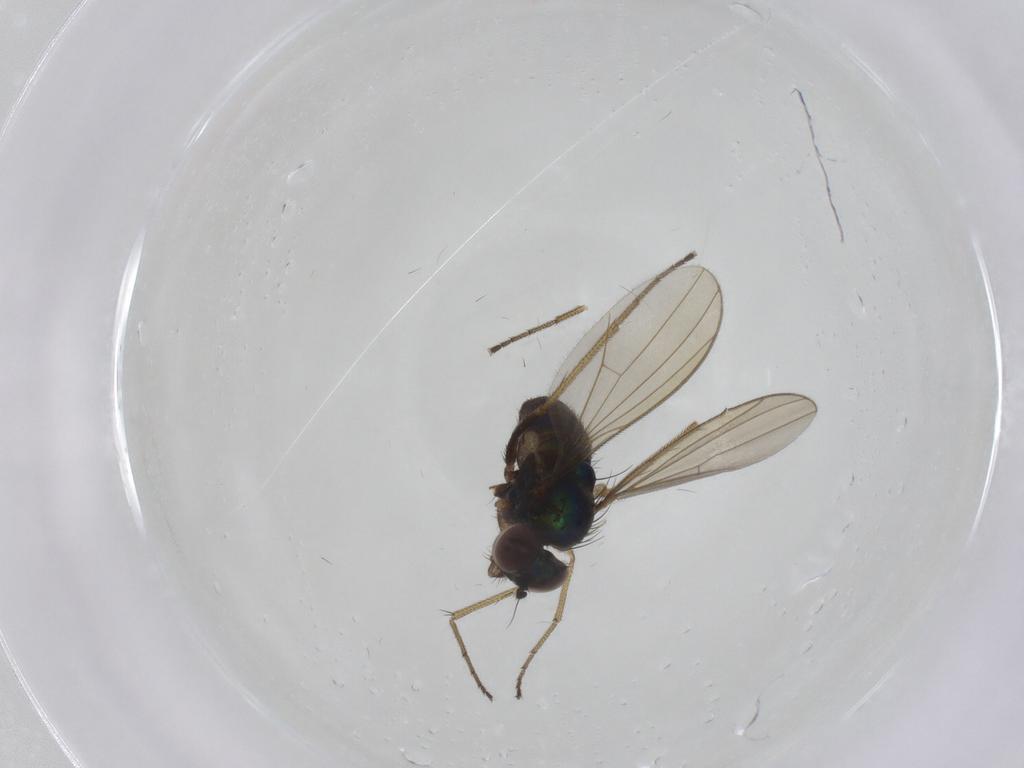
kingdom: Animalia
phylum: Arthropoda
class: Insecta
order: Diptera
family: Dolichopodidae
